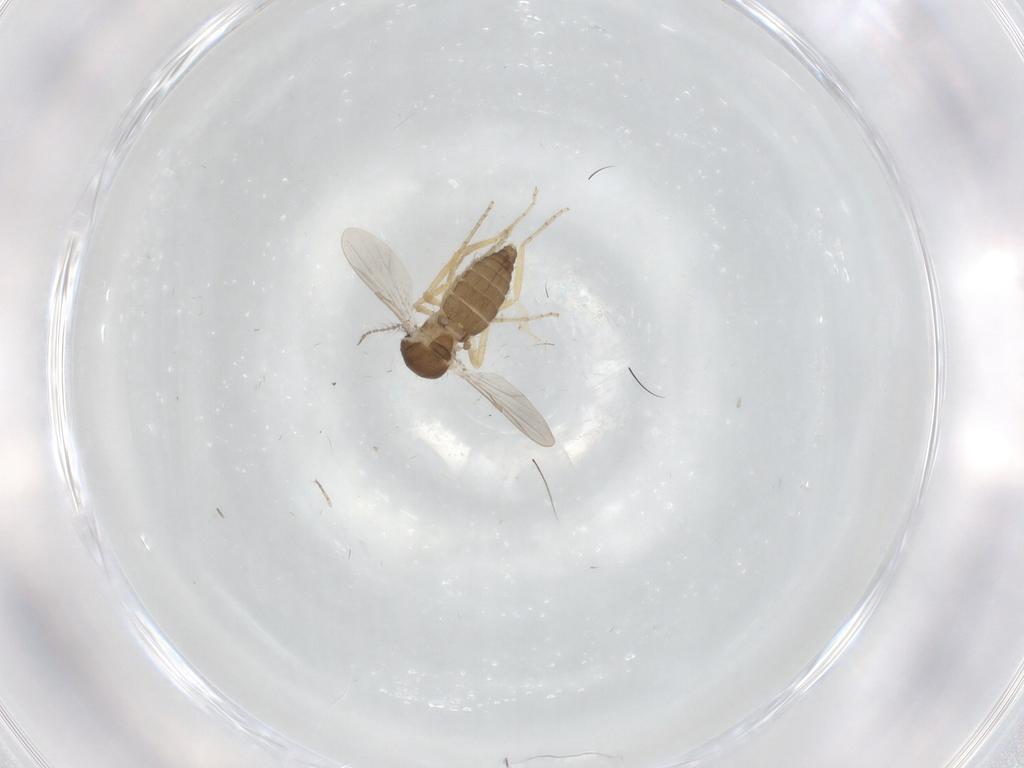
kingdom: Animalia
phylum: Arthropoda
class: Insecta
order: Diptera
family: Ceratopogonidae
